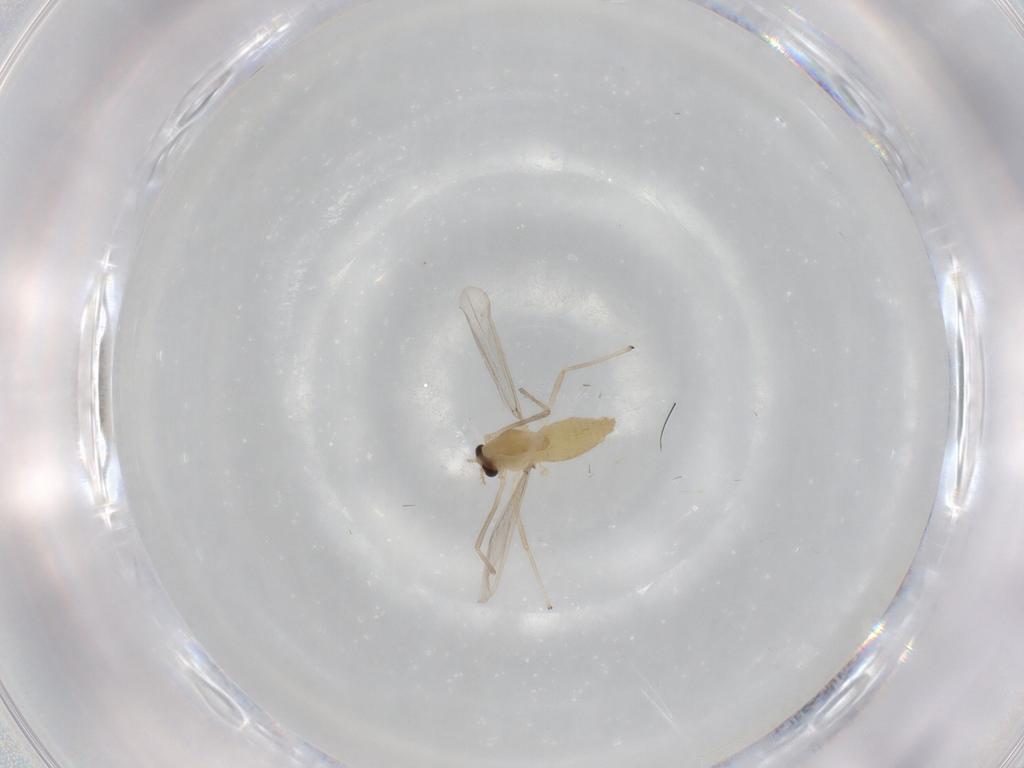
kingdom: Animalia
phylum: Arthropoda
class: Insecta
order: Diptera
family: Chironomidae
